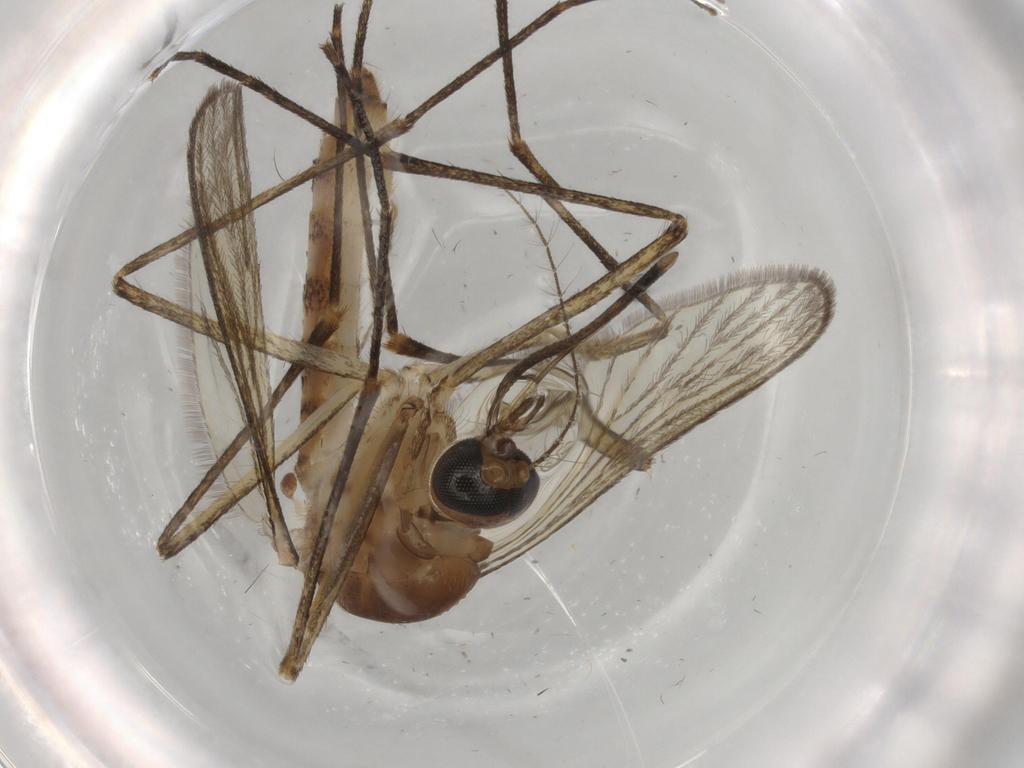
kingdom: Animalia
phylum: Arthropoda
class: Insecta
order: Diptera
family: Culicidae
